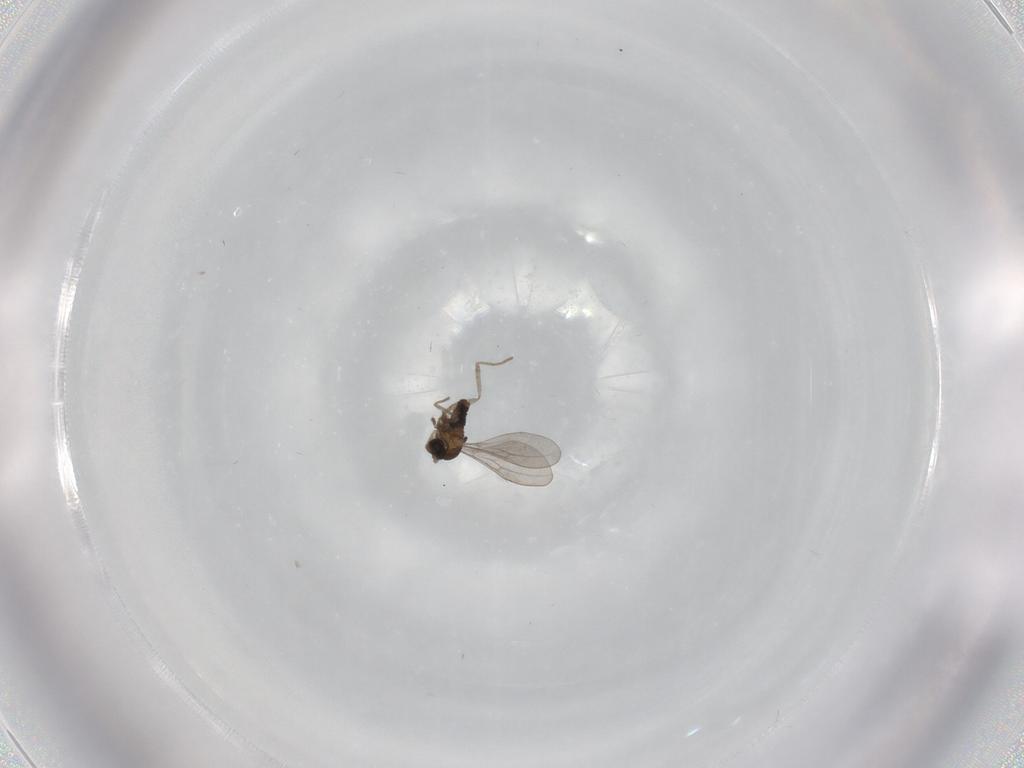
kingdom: Animalia
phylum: Arthropoda
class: Insecta
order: Diptera
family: Cecidomyiidae
